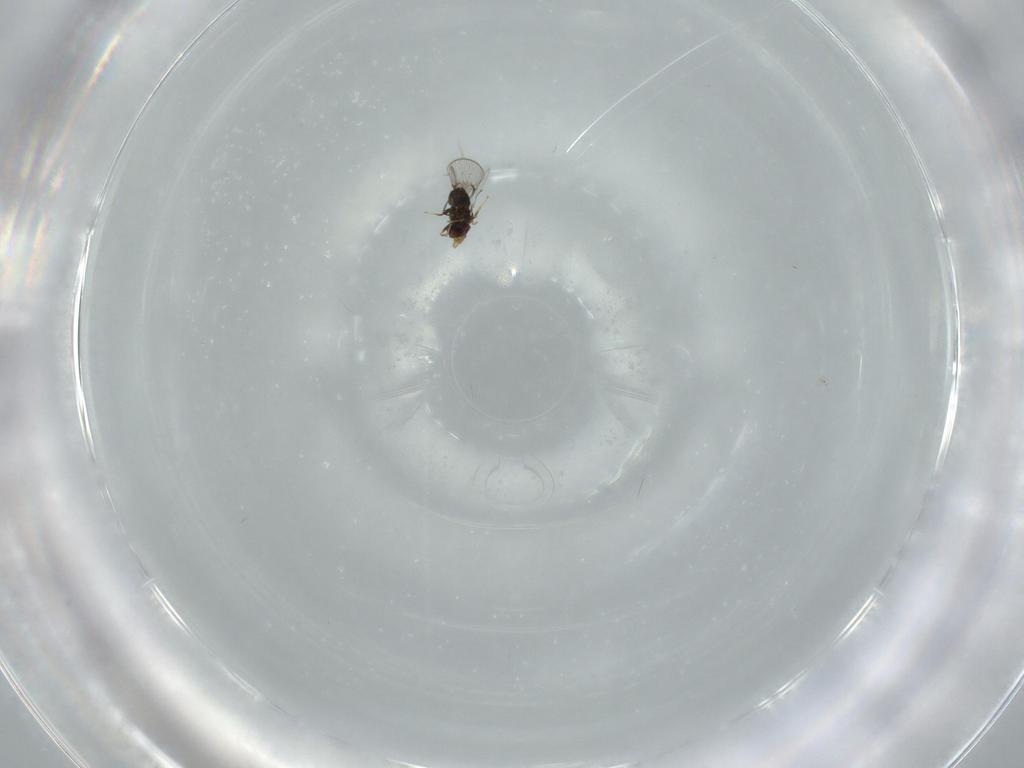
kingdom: Animalia
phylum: Arthropoda
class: Insecta
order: Hymenoptera
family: Trichogrammatidae
